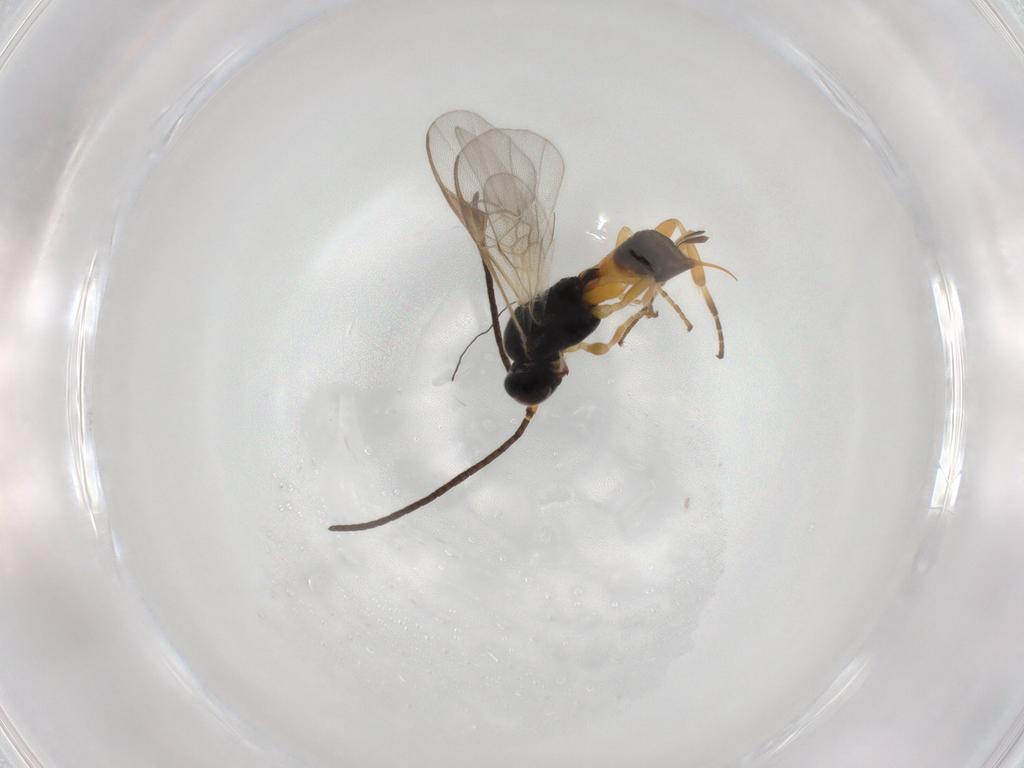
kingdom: Animalia
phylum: Arthropoda
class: Insecta
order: Hymenoptera
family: Braconidae
